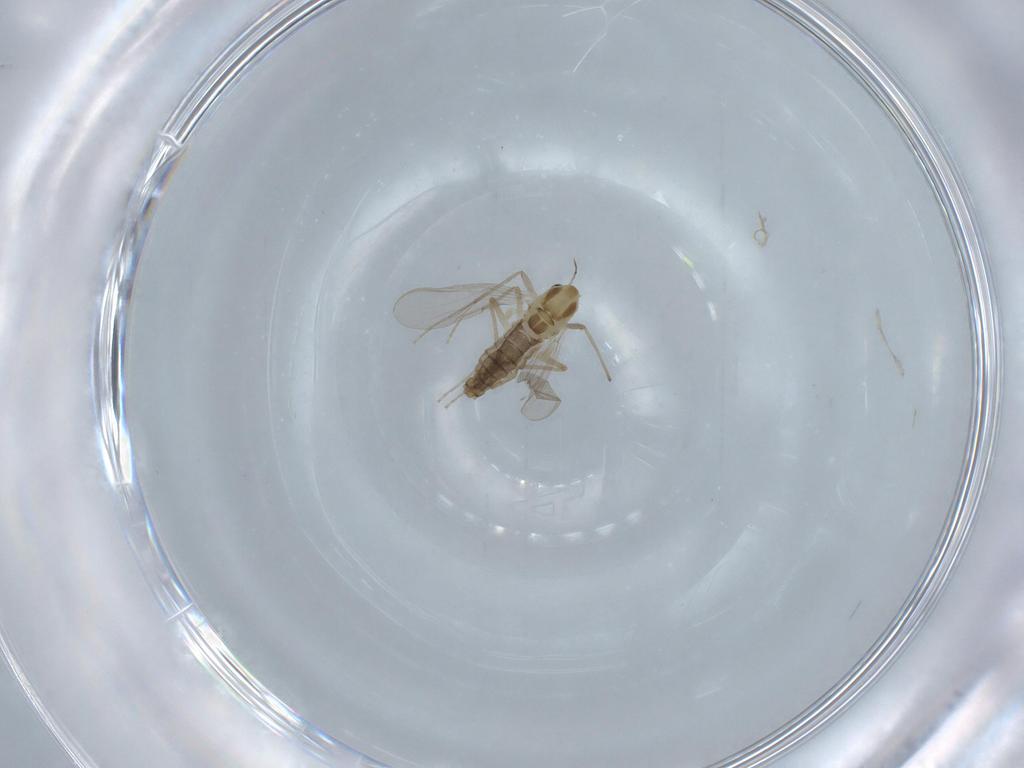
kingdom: Animalia
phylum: Arthropoda
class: Insecta
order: Diptera
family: Chironomidae
